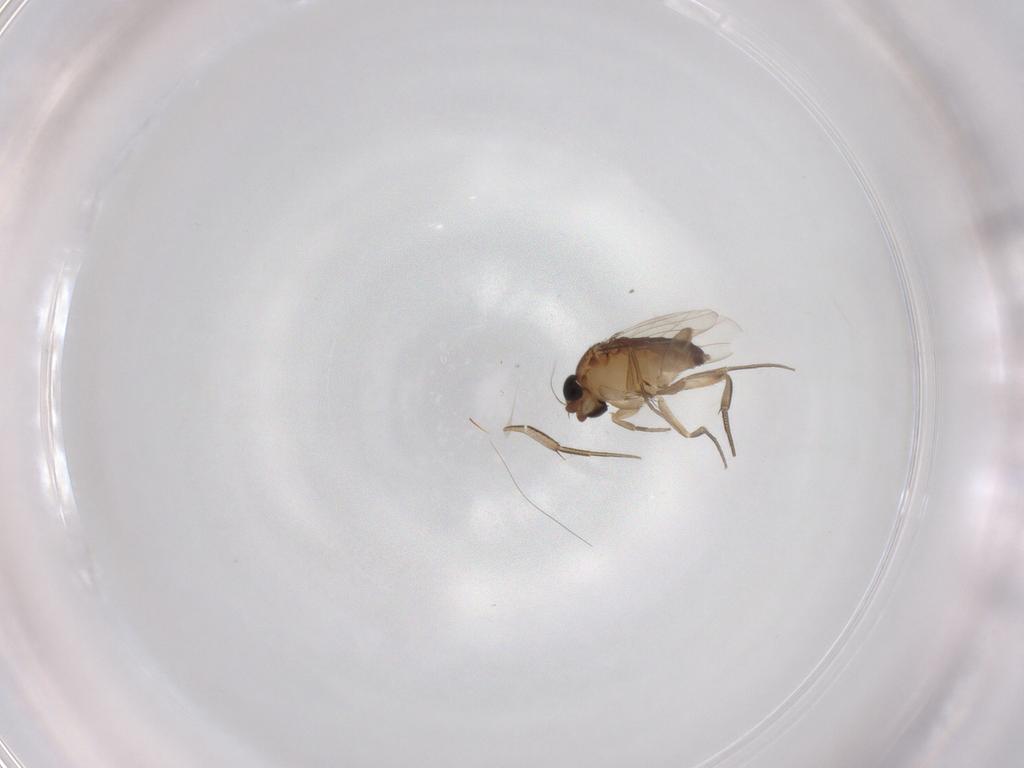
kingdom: Animalia
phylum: Arthropoda
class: Insecta
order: Diptera
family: Phoridae
